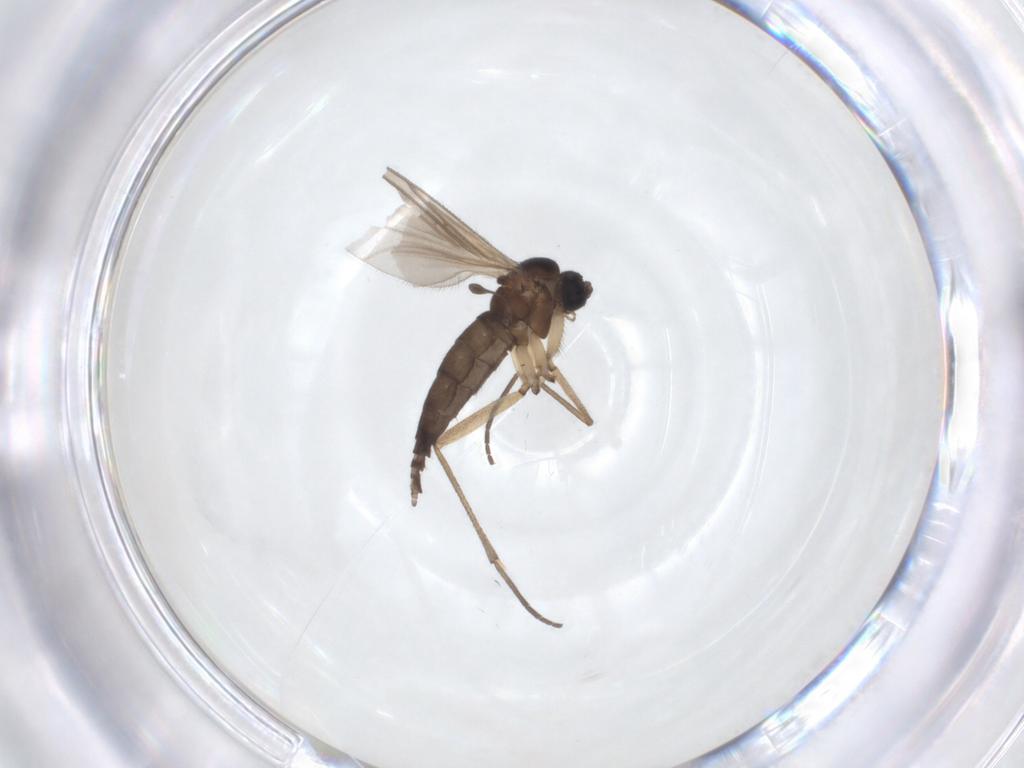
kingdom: Animalia
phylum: Arthropoda
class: Insecta
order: Diptera
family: Sciaridae
